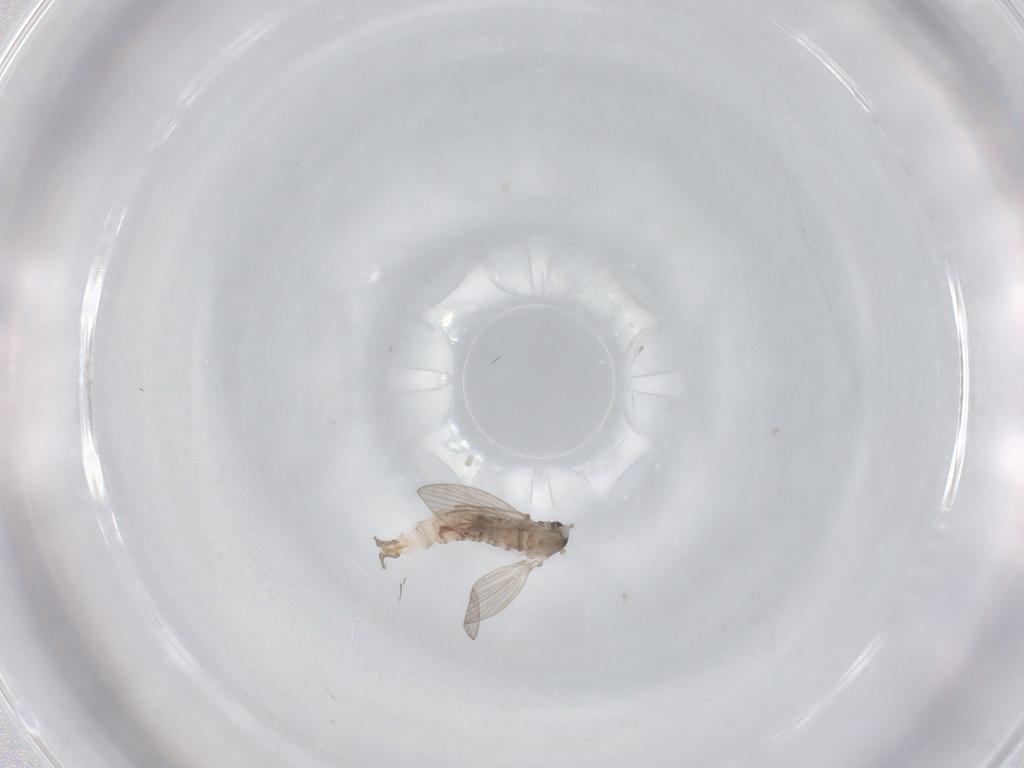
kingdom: Animalia
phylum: Arthropoda
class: Insecta
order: Diptera
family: Psychodidae
